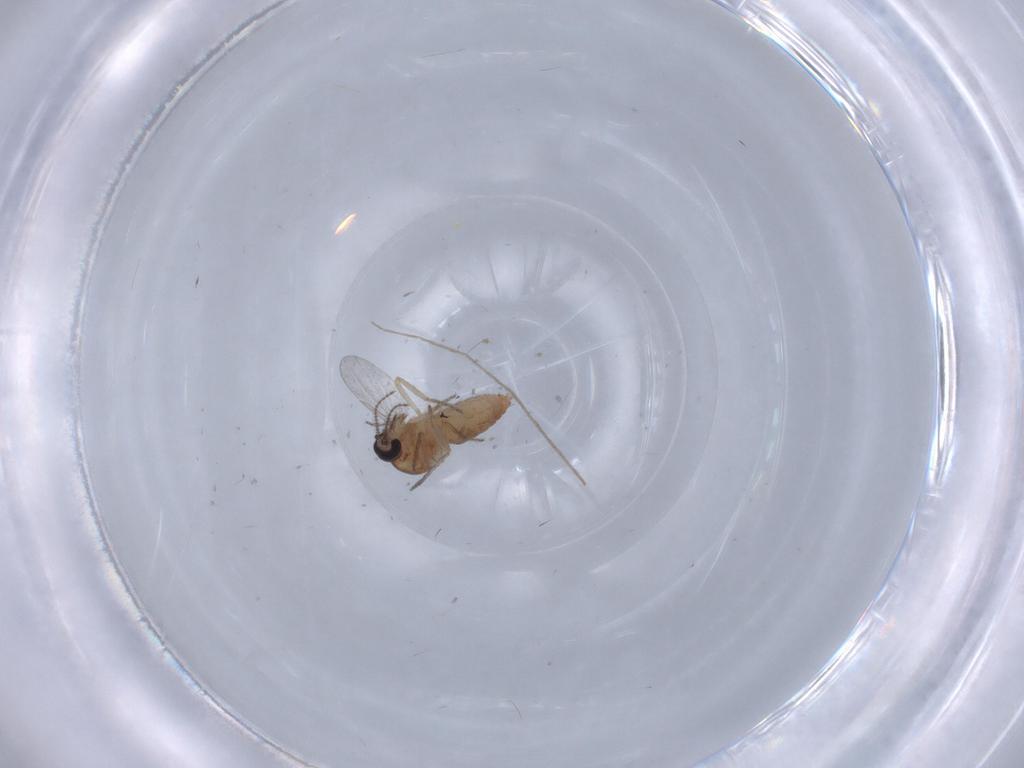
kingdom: Animalia
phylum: Arthropoda
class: Insecta
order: Diptera
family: Ceratopogonidae
